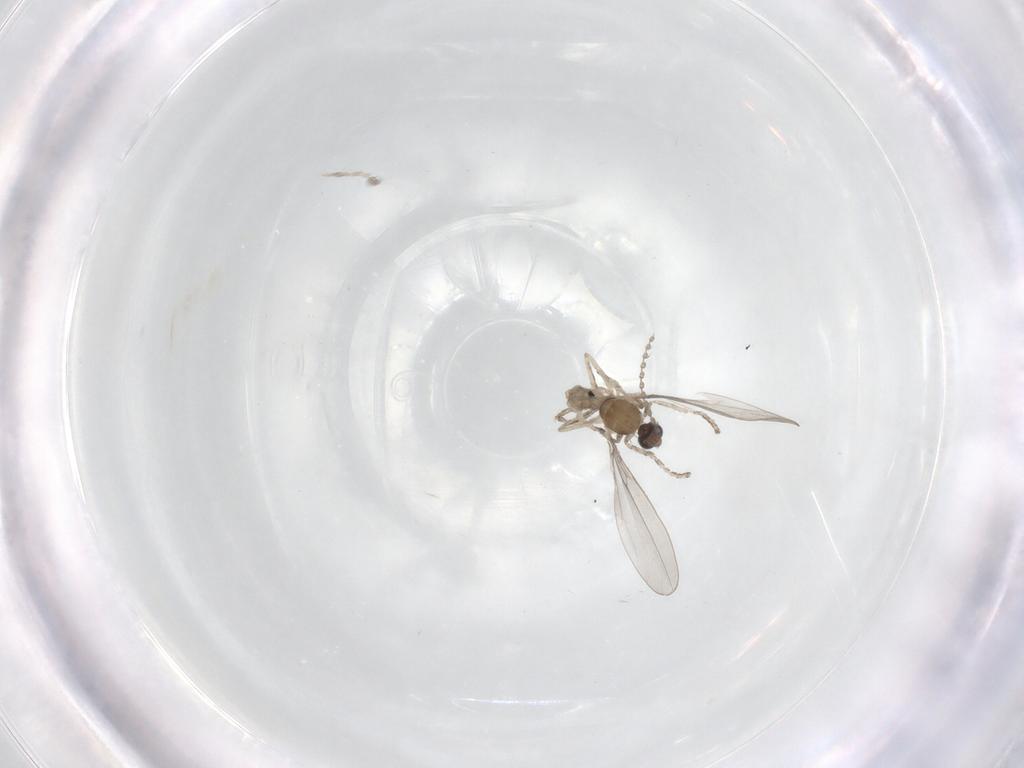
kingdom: Animalia
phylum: Arthropoda
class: Insecta
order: Diptera
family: Cecidomyiidae
